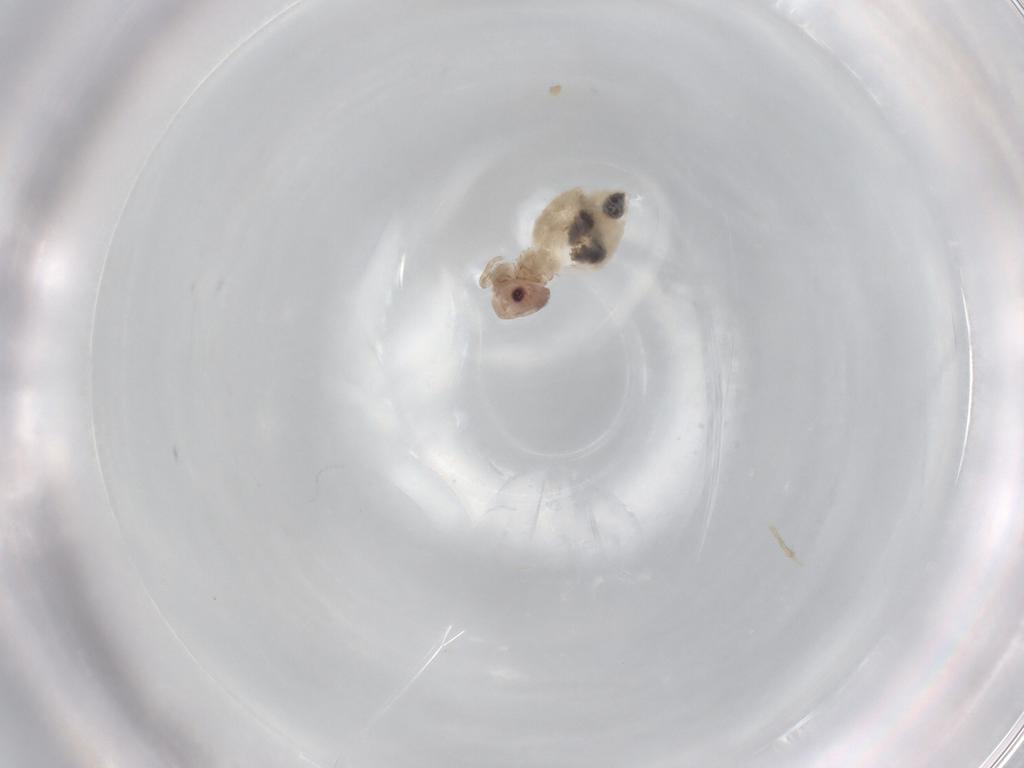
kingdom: Animalia
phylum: Arthropoda
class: Insecta
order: Psocodea
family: Stenopsocidae
